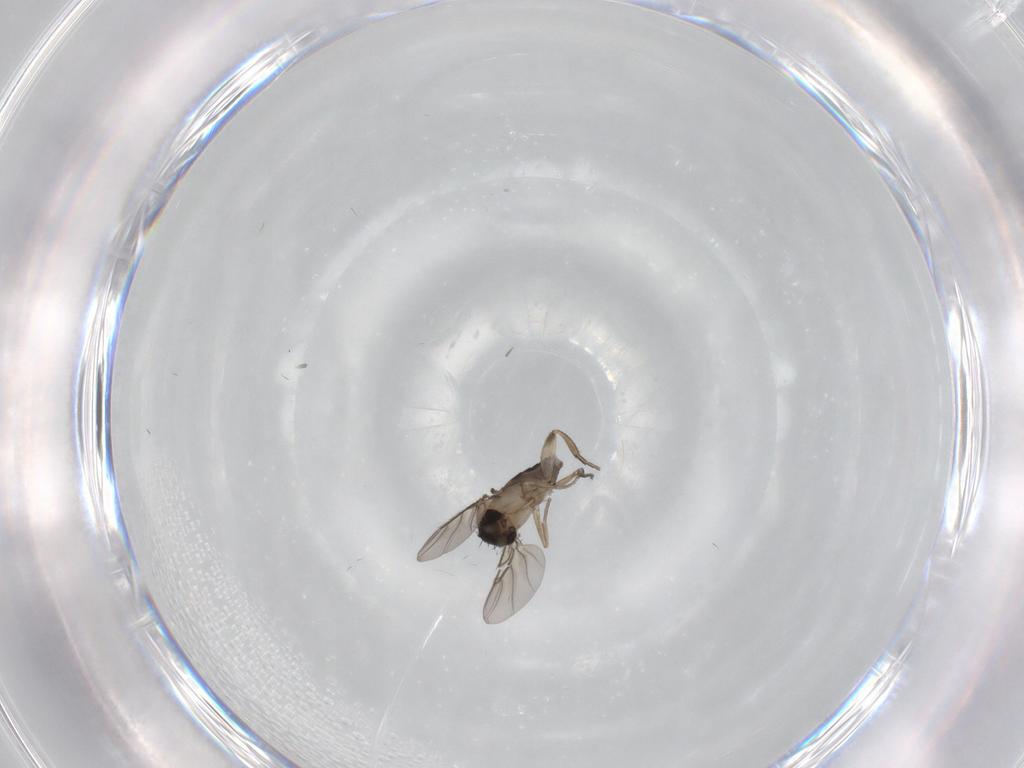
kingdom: Animalia
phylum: Arthropoda
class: Insecta
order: Diptera
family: Phoridae
